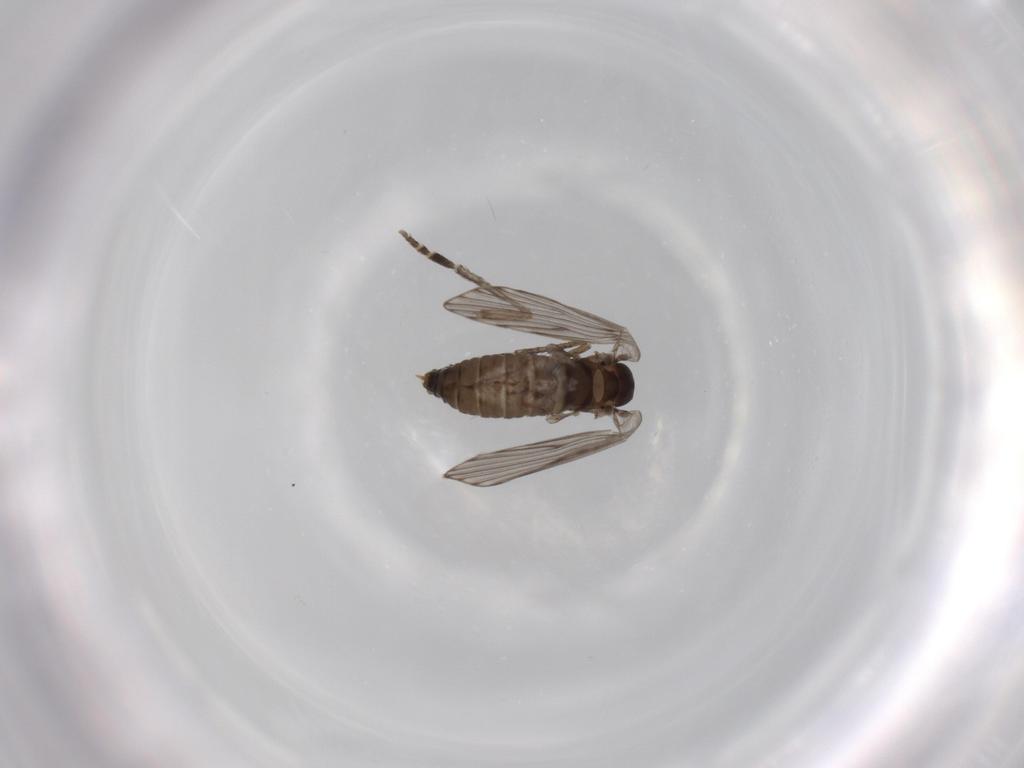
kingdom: Animalia
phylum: Arthropoda
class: Insecta
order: Diptera
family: Psychodidae
